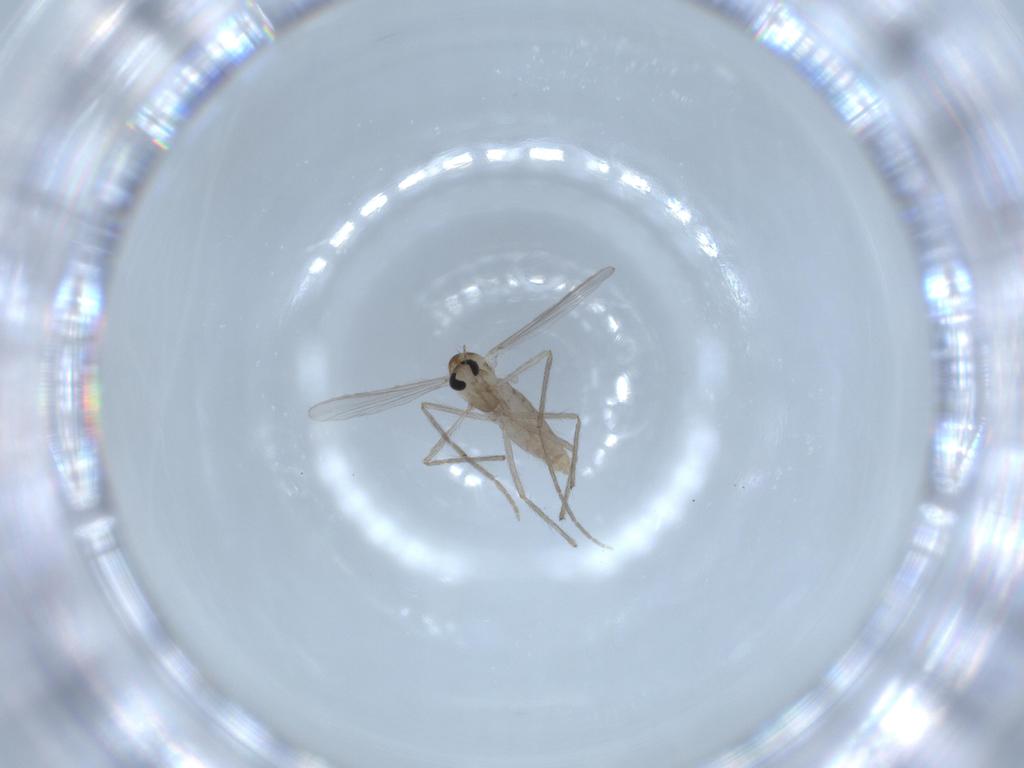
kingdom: Animalia
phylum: Arthropoda
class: Insecta
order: Diptera
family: Chironomidae
